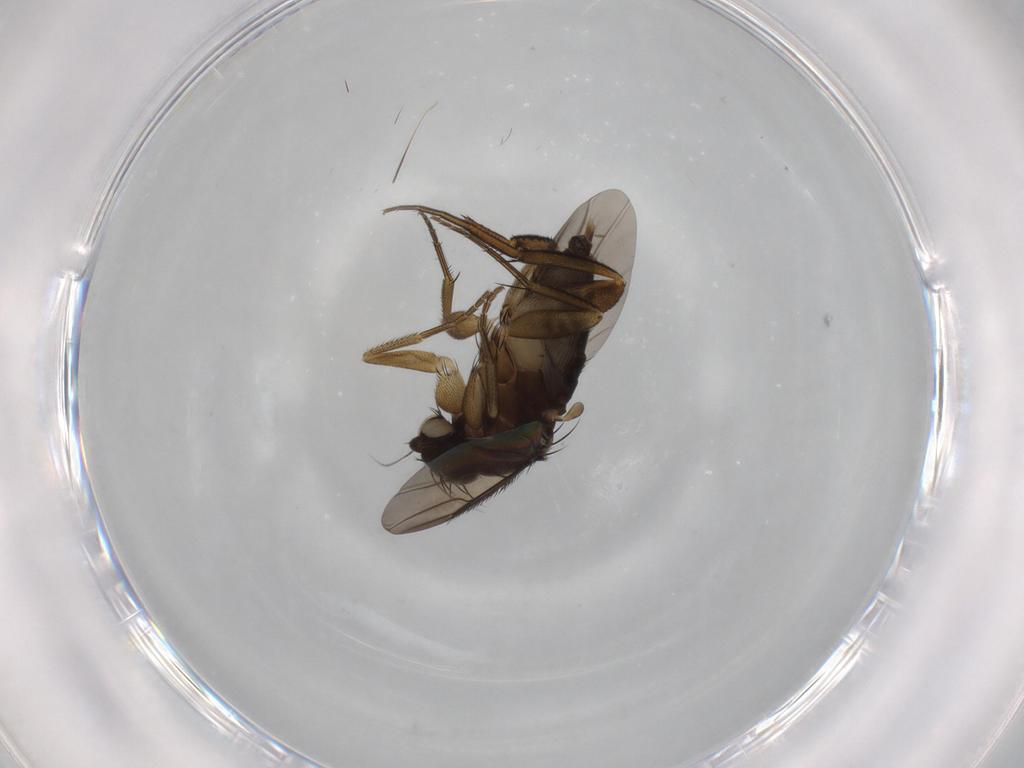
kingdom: Animalia
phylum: Arthropoda
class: Insecta
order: Diptera
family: Phoridae
